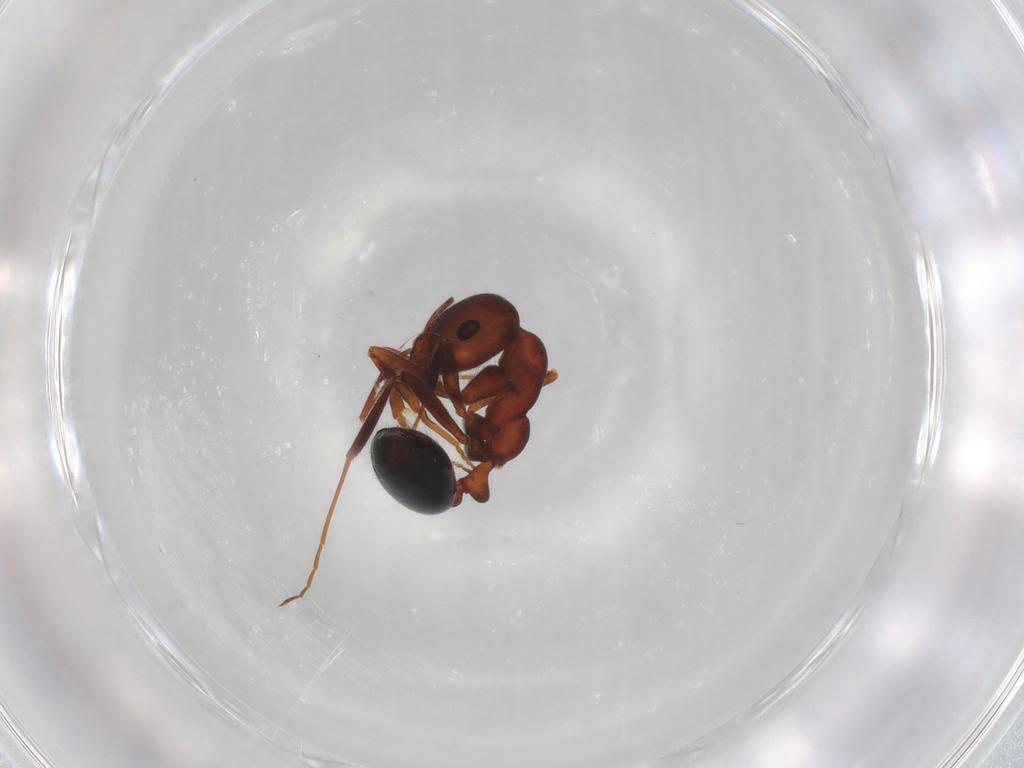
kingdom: Animalia
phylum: Arthropoda
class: Insecta
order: Hymenoptera
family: Formicidae
